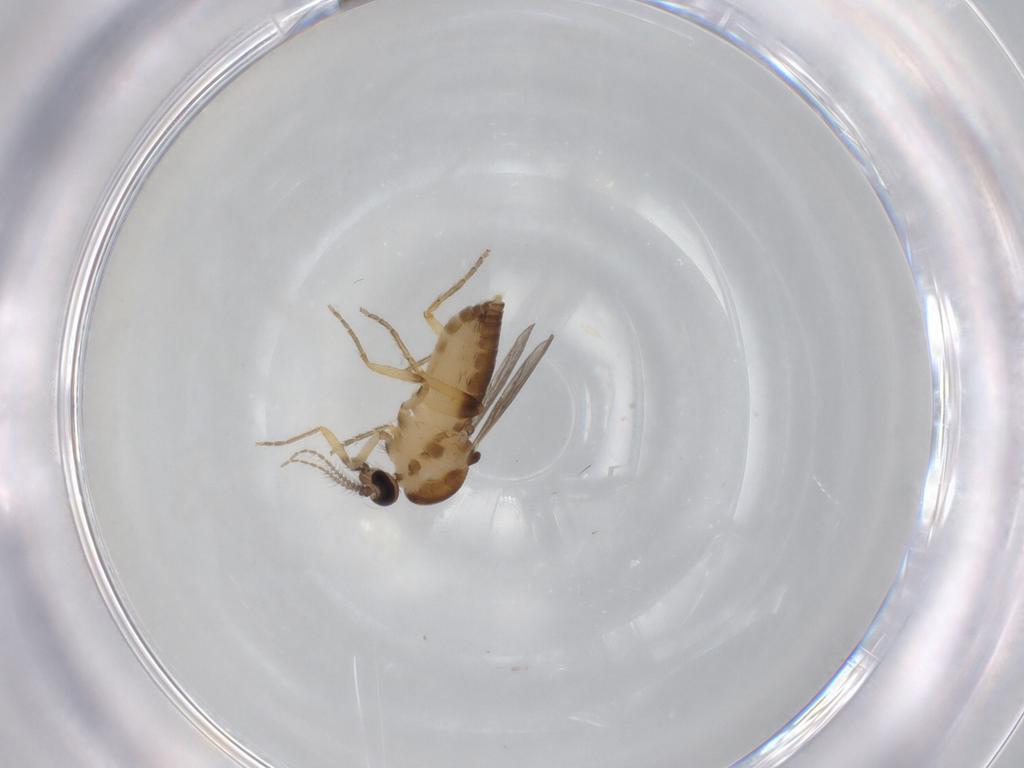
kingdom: Animalia
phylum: Arthropoda
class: Insecta
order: Diptera
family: Ceratopogonidae
